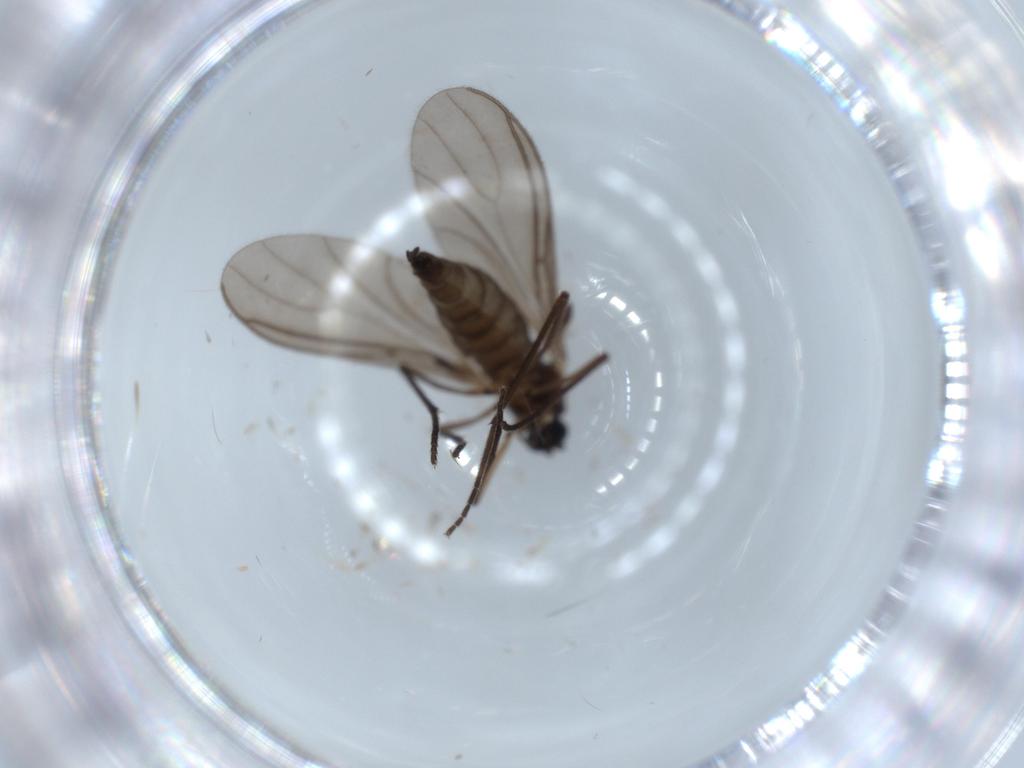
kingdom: Animalia
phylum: Arthropoda
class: Insecta
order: Diptera
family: Sciaridae
